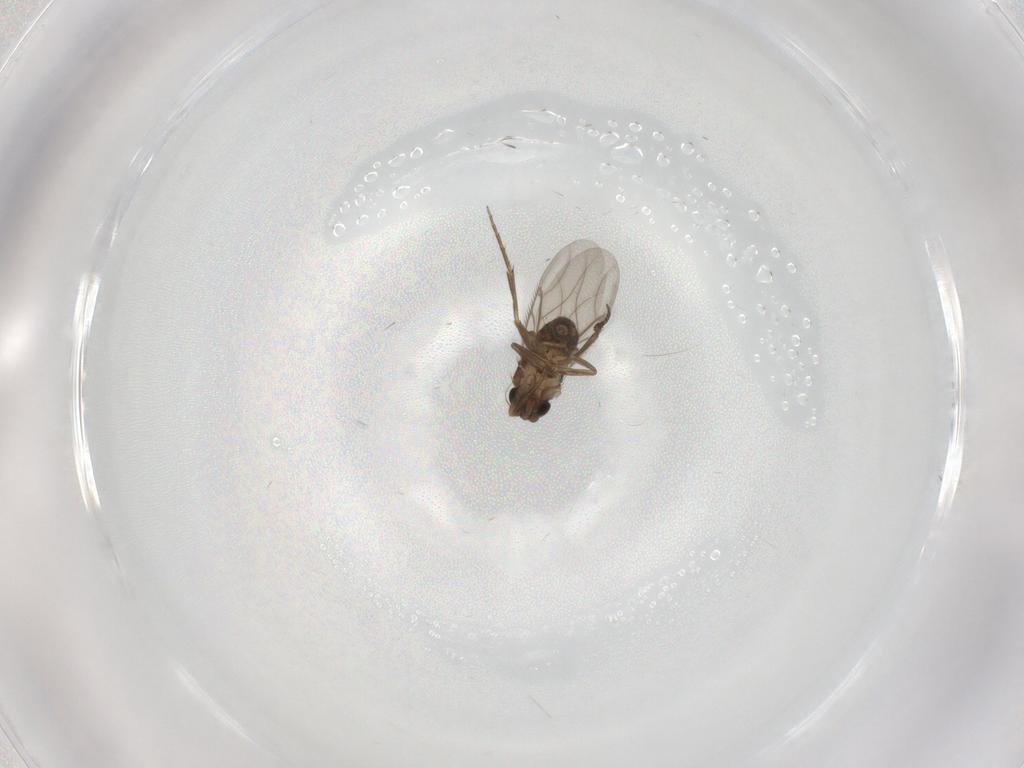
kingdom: Animalia
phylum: Arthropoda
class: Insecta
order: Diptera
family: Phoridae
